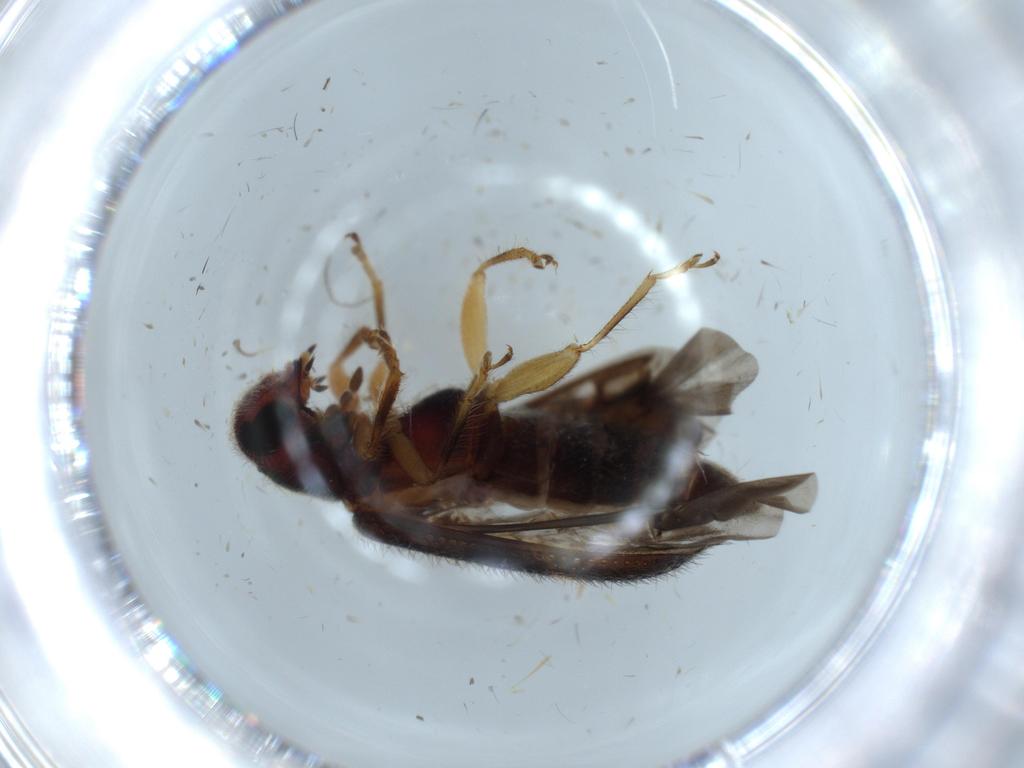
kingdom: Animalia
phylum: Arthropoda
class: Insecta
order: Coleoptera
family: Cleridae
